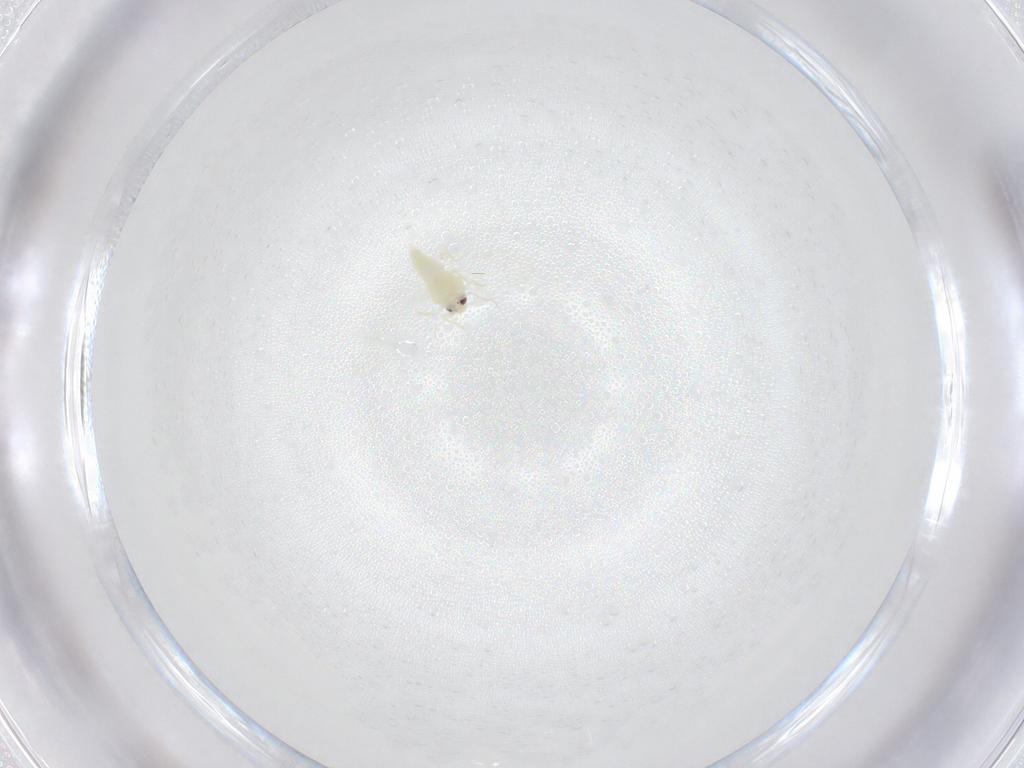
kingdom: Animalia
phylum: Arthropoda
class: Insecta
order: Hemiptera
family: Aleyrodidae
